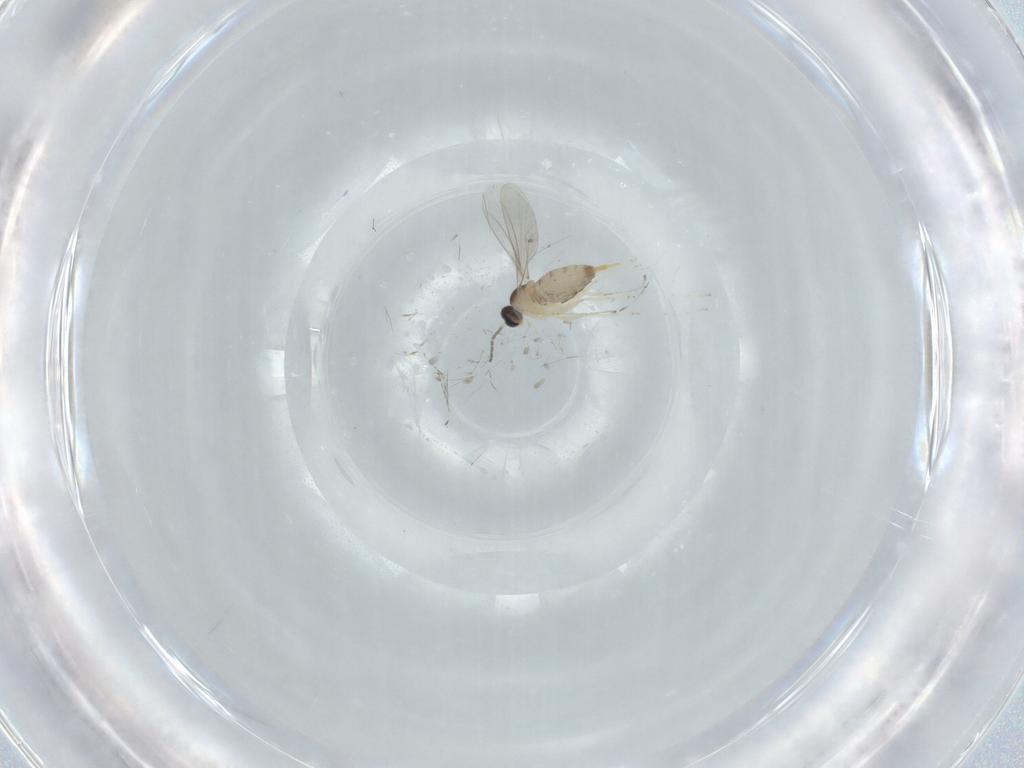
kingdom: Animalia
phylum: Arthropoda
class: Insecta
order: Diptera
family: Cecidomyiidae
